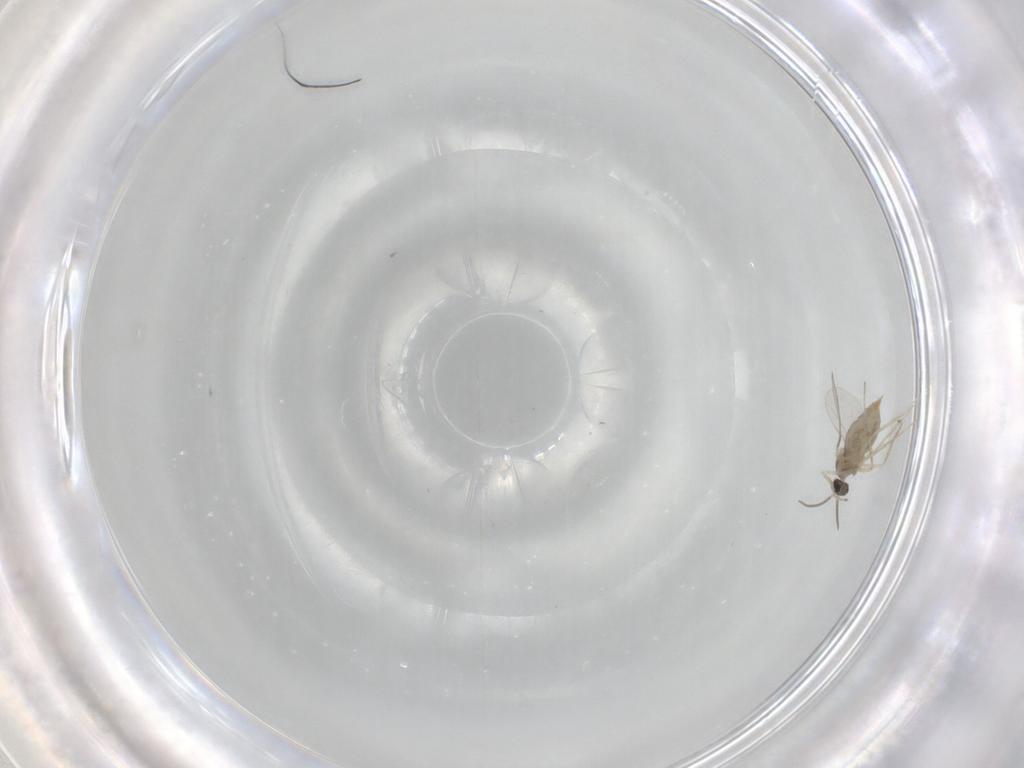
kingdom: Animalia
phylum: Arthropoda
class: Insecta
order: Diptera
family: Cecidomyiidae
